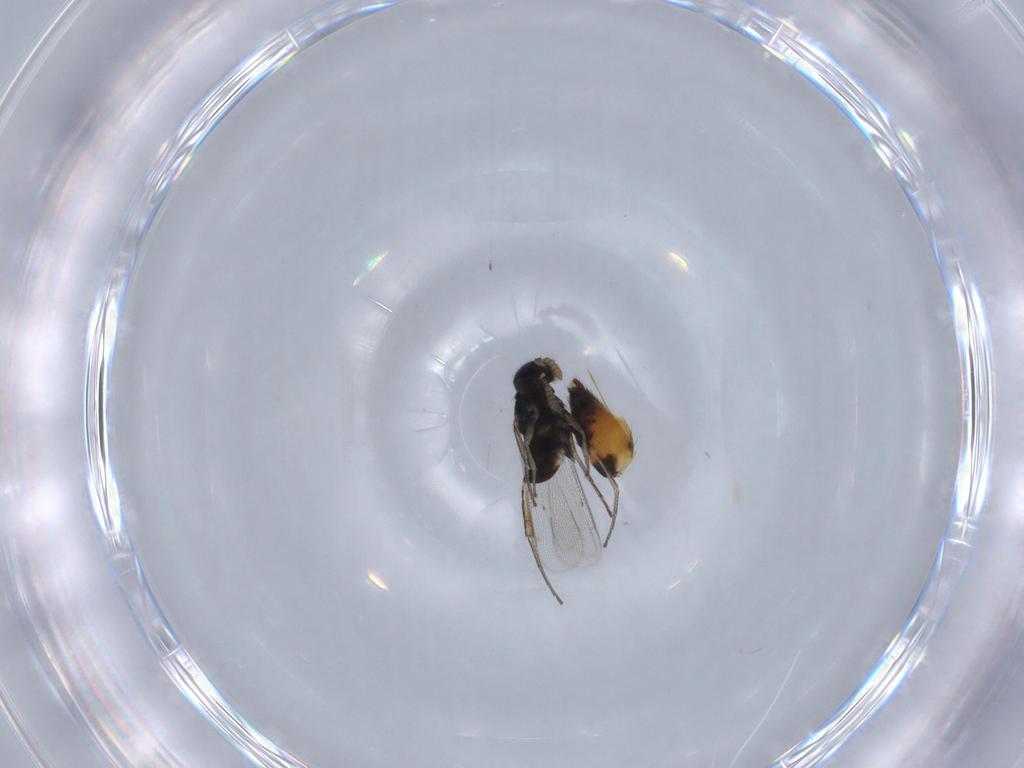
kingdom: Animalia
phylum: Arthropoda
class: Insecta
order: Hymenoptera
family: Eulophidae
